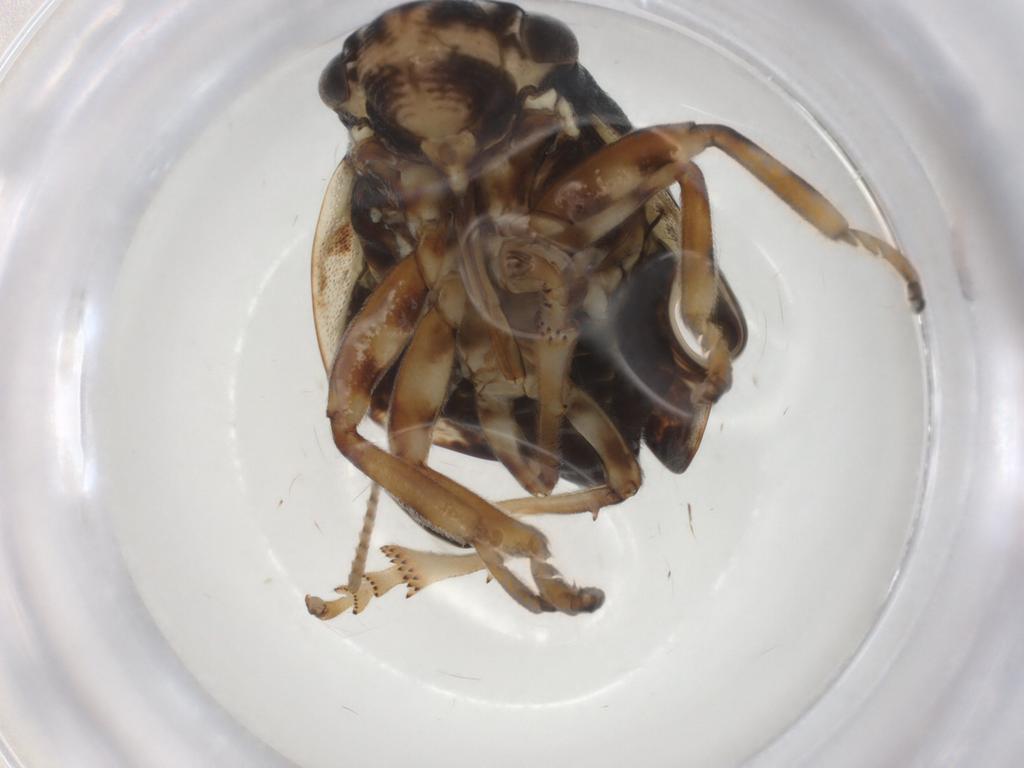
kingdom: Animalia
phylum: Arthropoda
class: Insecta
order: Hemiptera
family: Aphrophoridae
